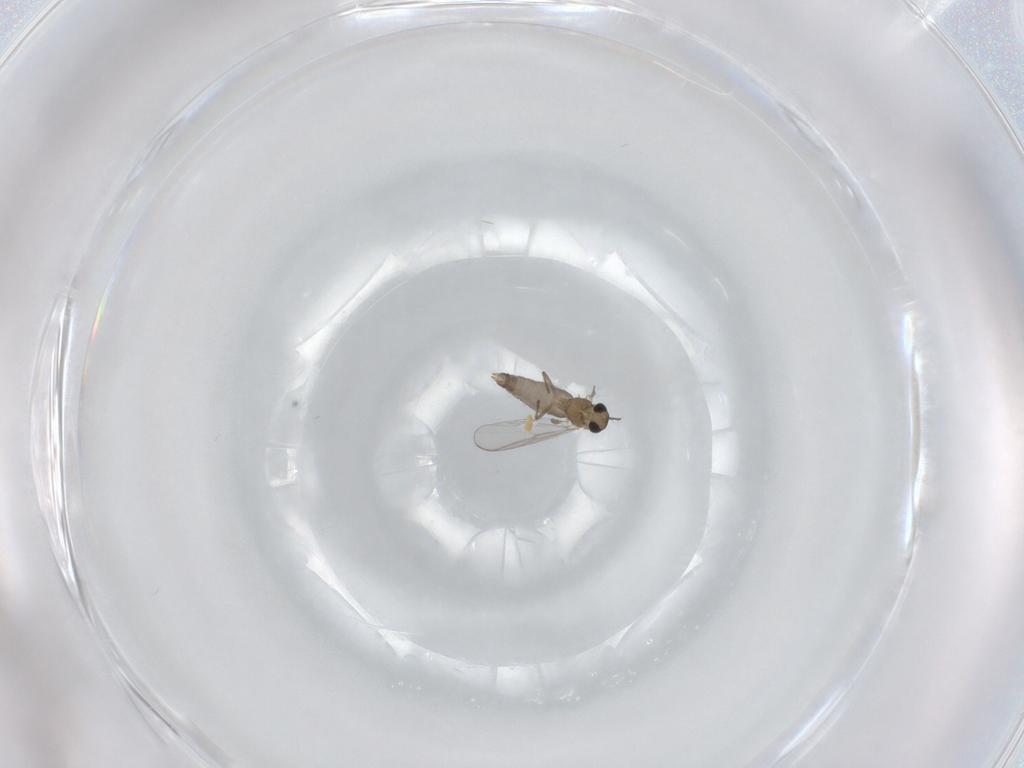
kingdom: Animalia
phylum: Arthropoda
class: Insecta
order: Diptera
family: Chironomidae
